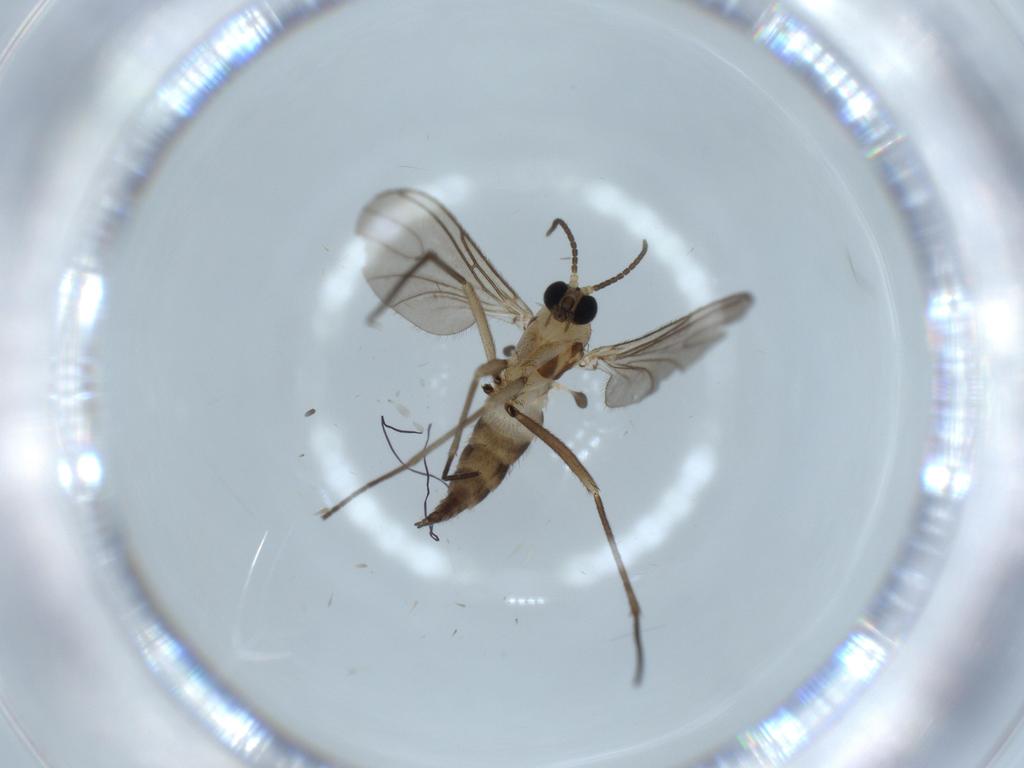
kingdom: Animalia
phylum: Arthropoda
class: Insecta
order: Diptera
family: Sciaridae
